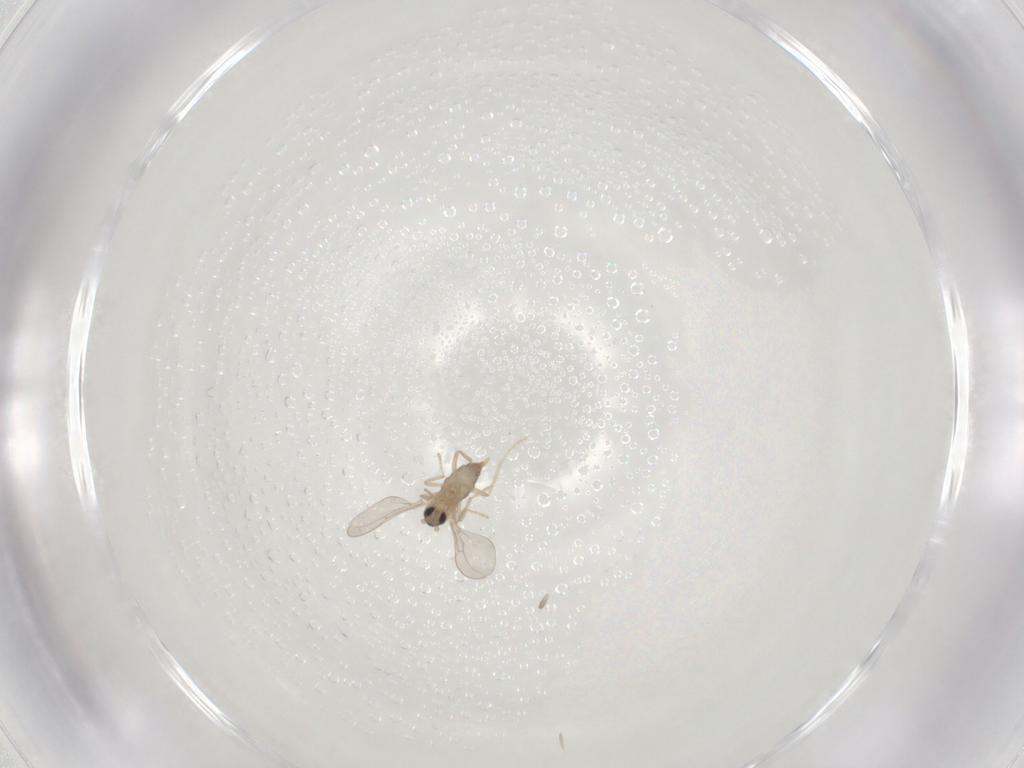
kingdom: Animalia
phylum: Arthropoda
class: Insecta
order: Diptera
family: Cecidomyiidae
